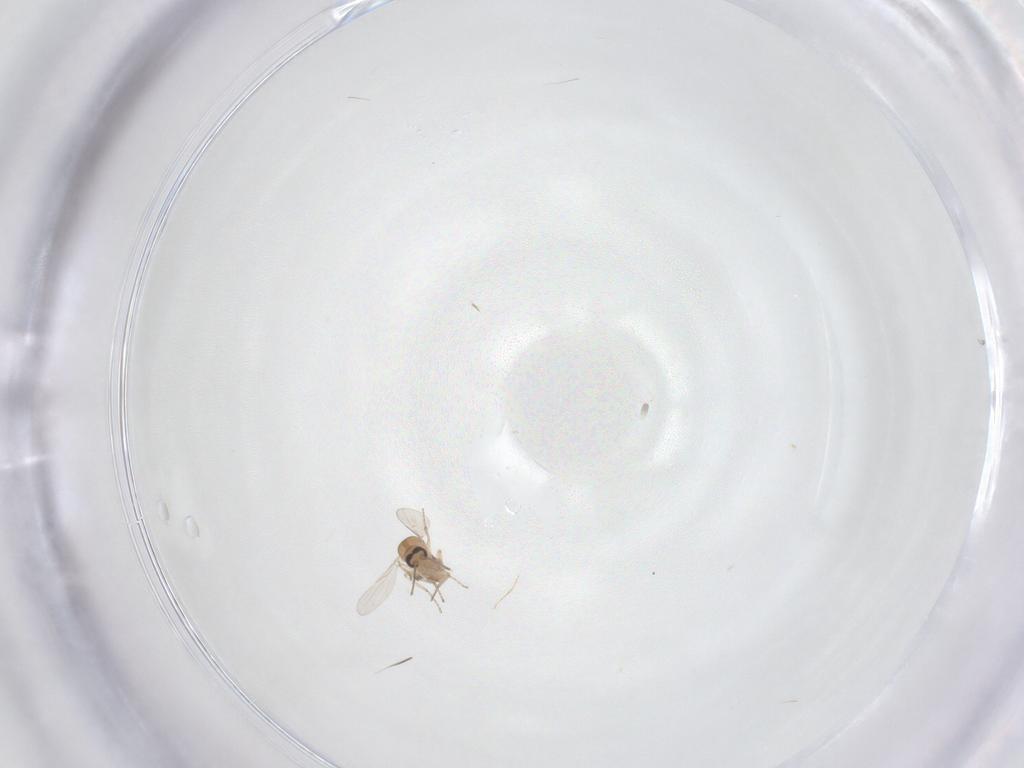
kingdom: Animalia
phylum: Arthropoda
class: Insecta
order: Diptera
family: Ceratopogonidae
